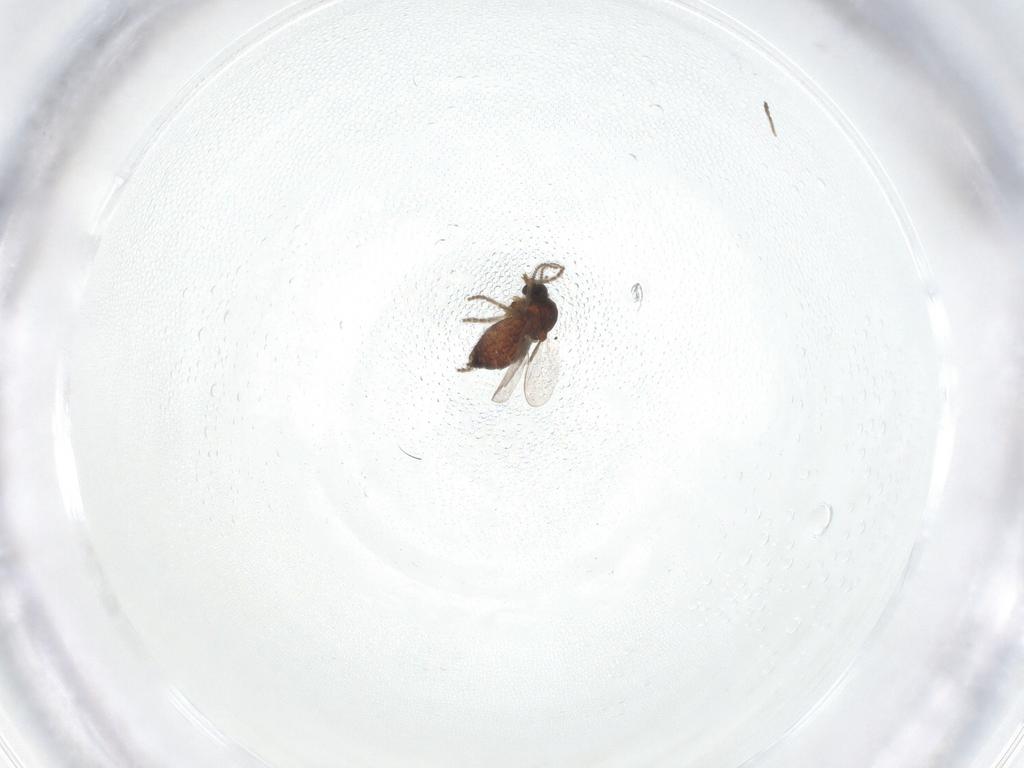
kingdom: Animalia
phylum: Arthropoda
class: Insecta
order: Diptera
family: Ceratopogonidae
